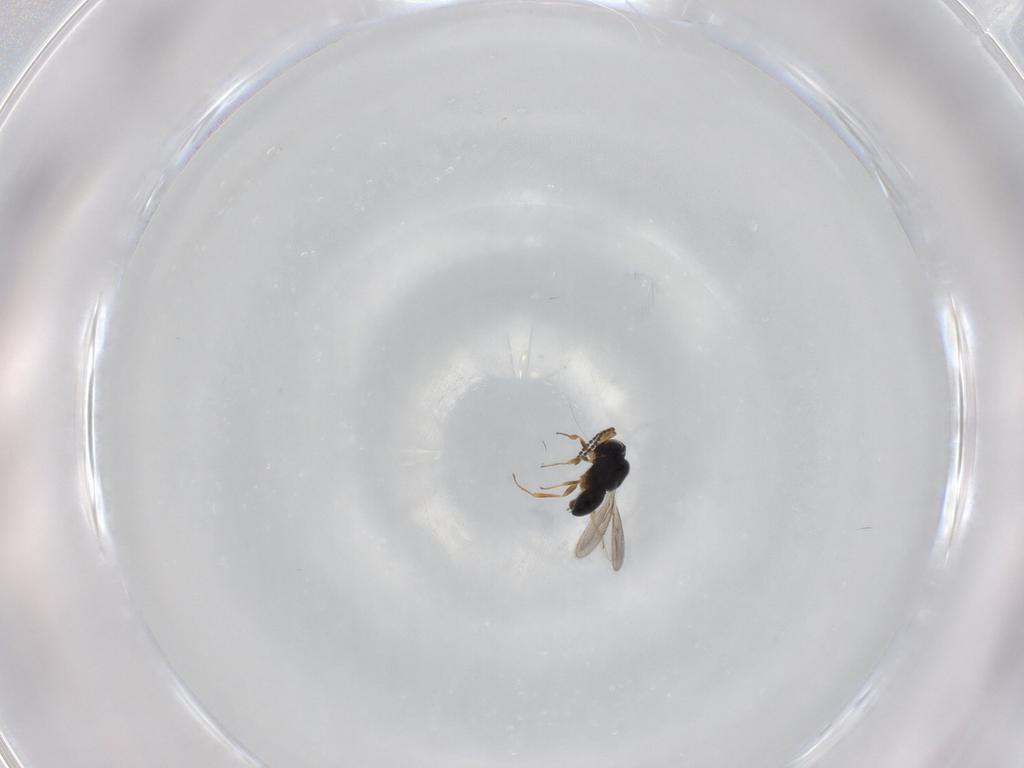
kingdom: Animalia
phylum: Arthropoda
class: Insecta
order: Hymenoptera
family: Scelionidae
